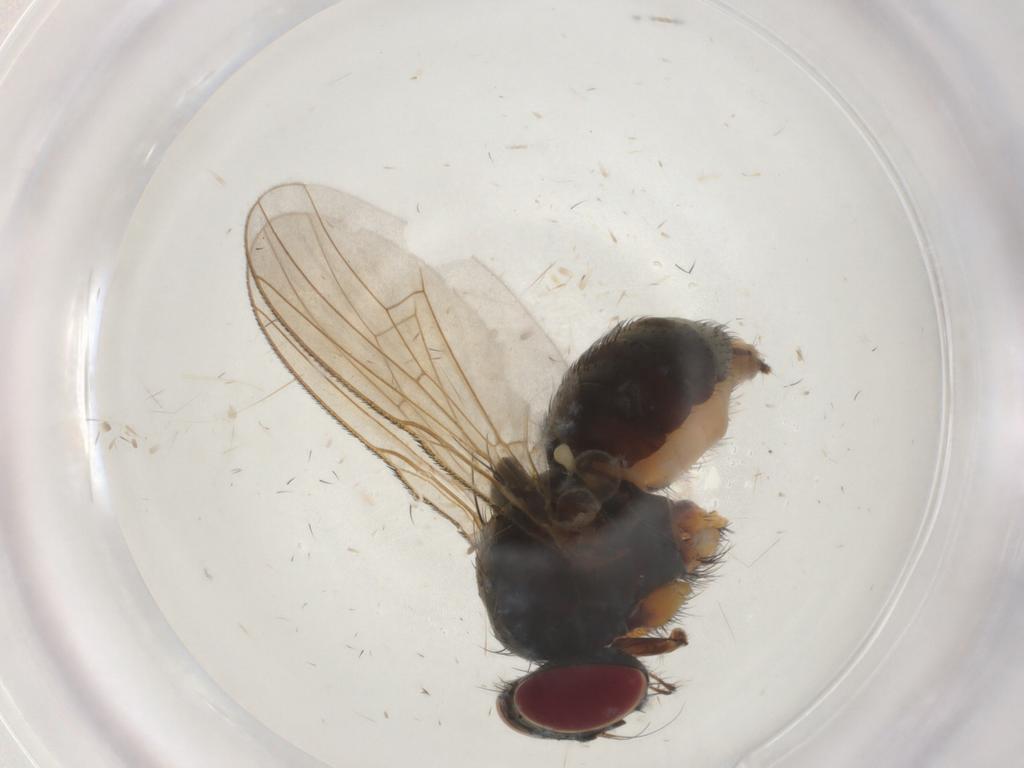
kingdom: Animalia
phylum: Arthropoda
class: Insecta
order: Diptera
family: Muscidae
